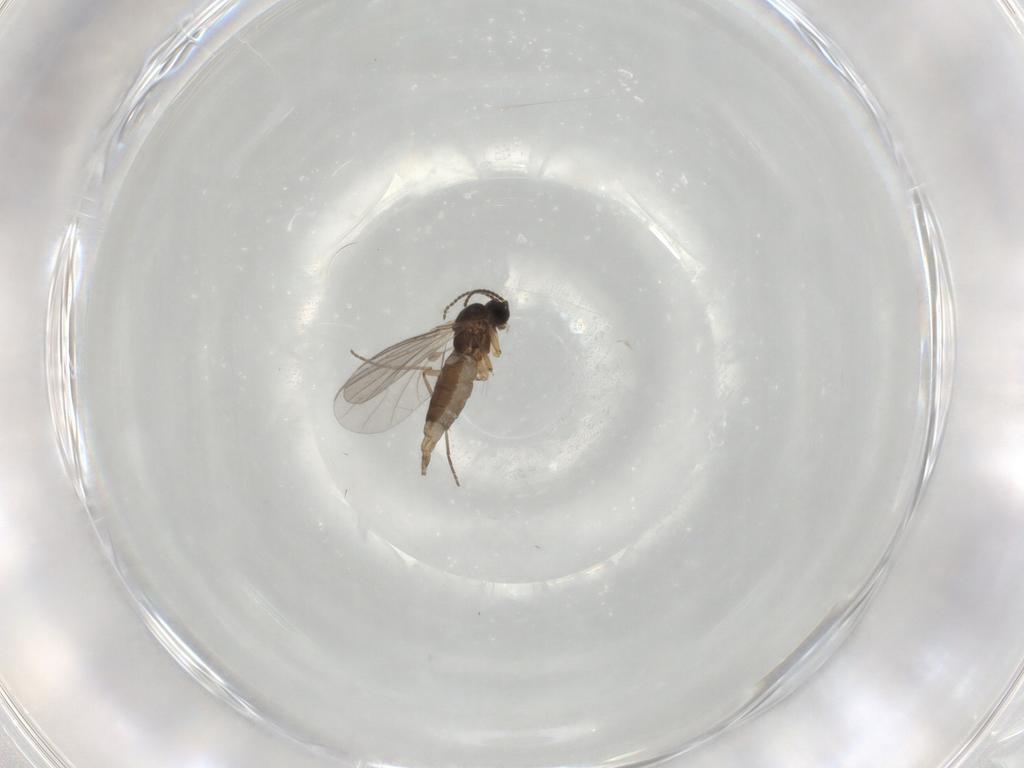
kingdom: Animalia
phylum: Arthropoda
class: Insecta
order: Diptera
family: Sciaridae
